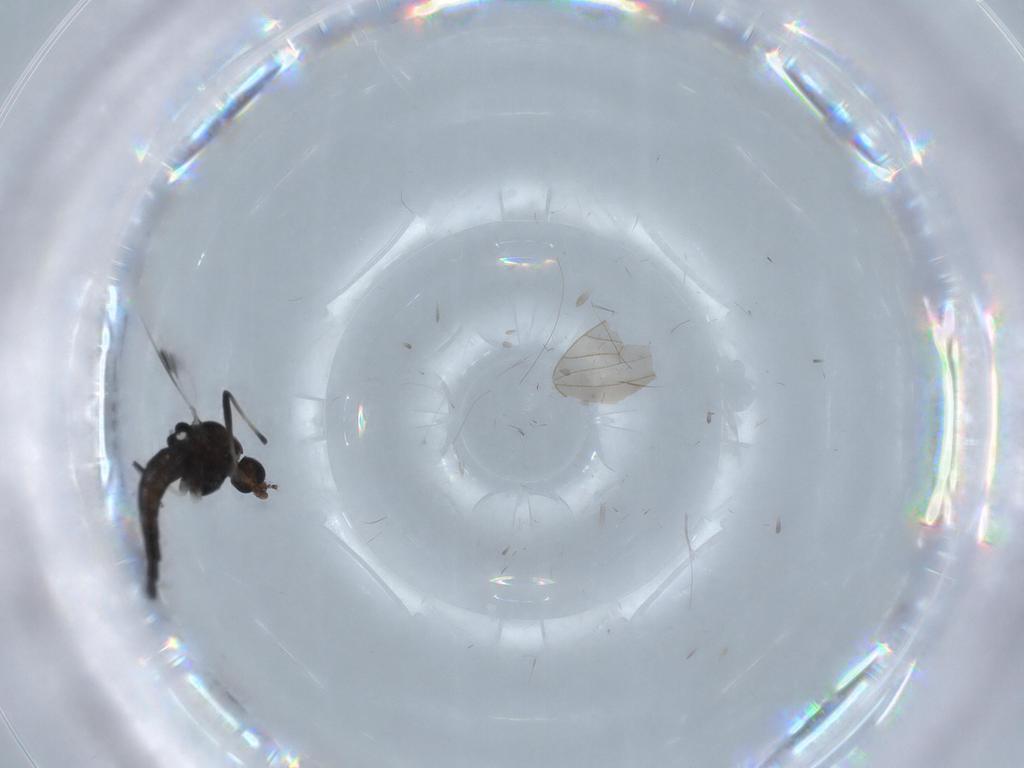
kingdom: Animalia
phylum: Arthropoda
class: Insecta
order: Diptera
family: Chironomidae
